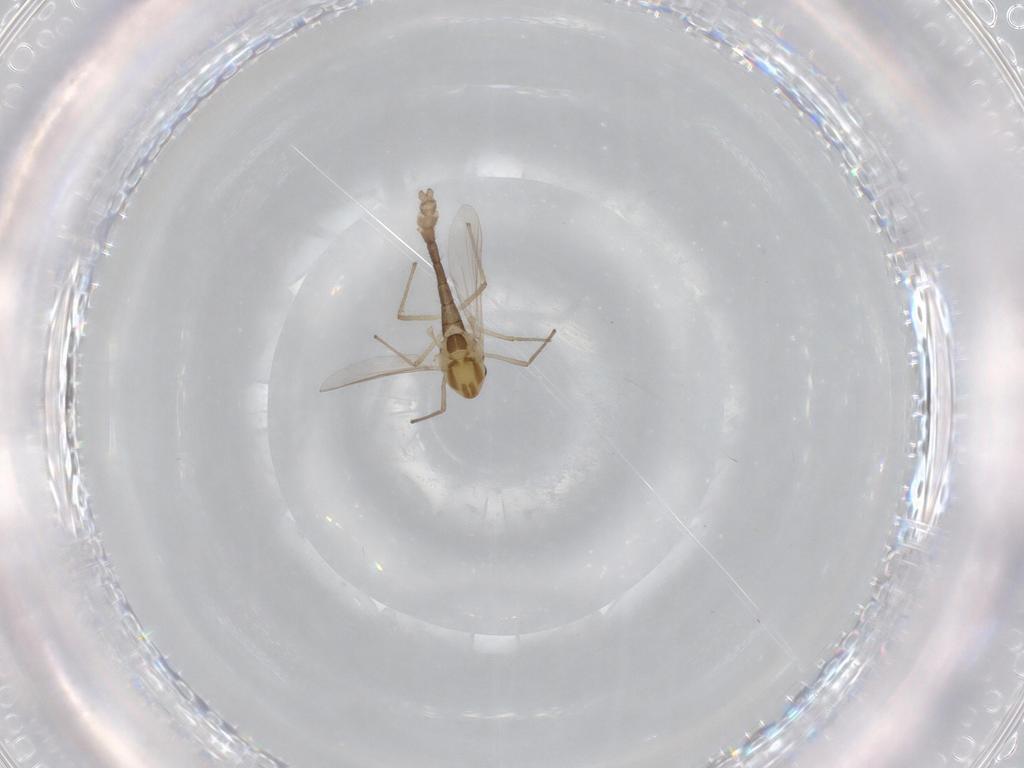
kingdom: Animalia
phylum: Arthropoda
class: Insecta
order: Diptera
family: Chironomidae
